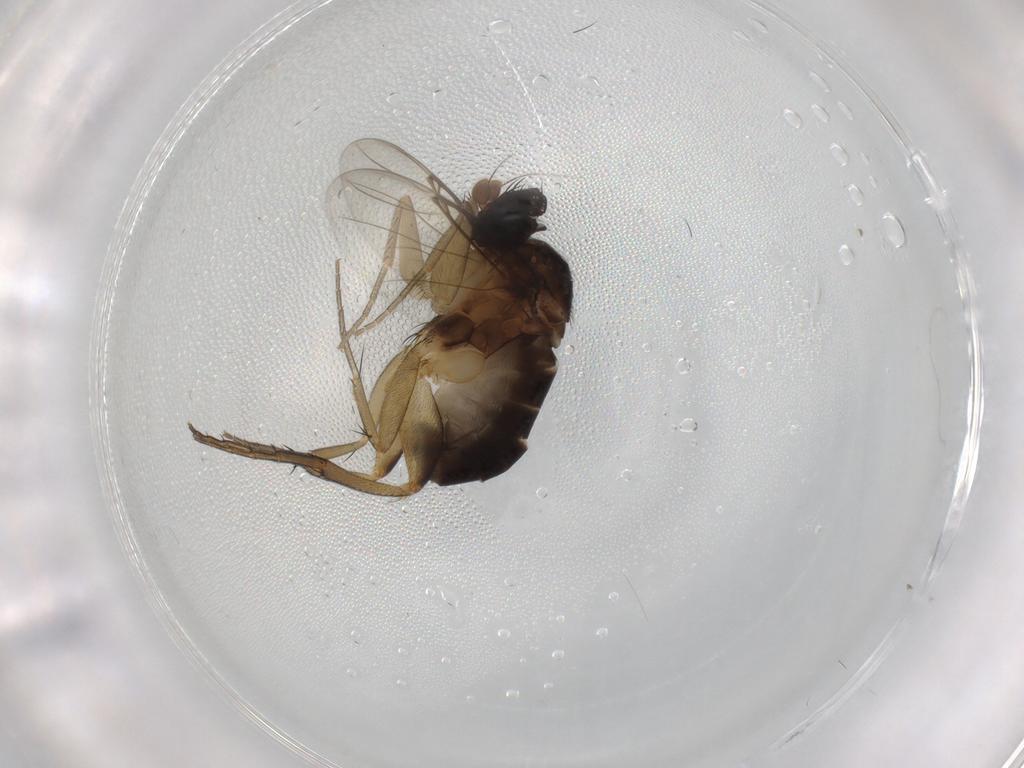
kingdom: Animalia
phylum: Arthropoda
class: Insecta
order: Diptera
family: Phoridae
